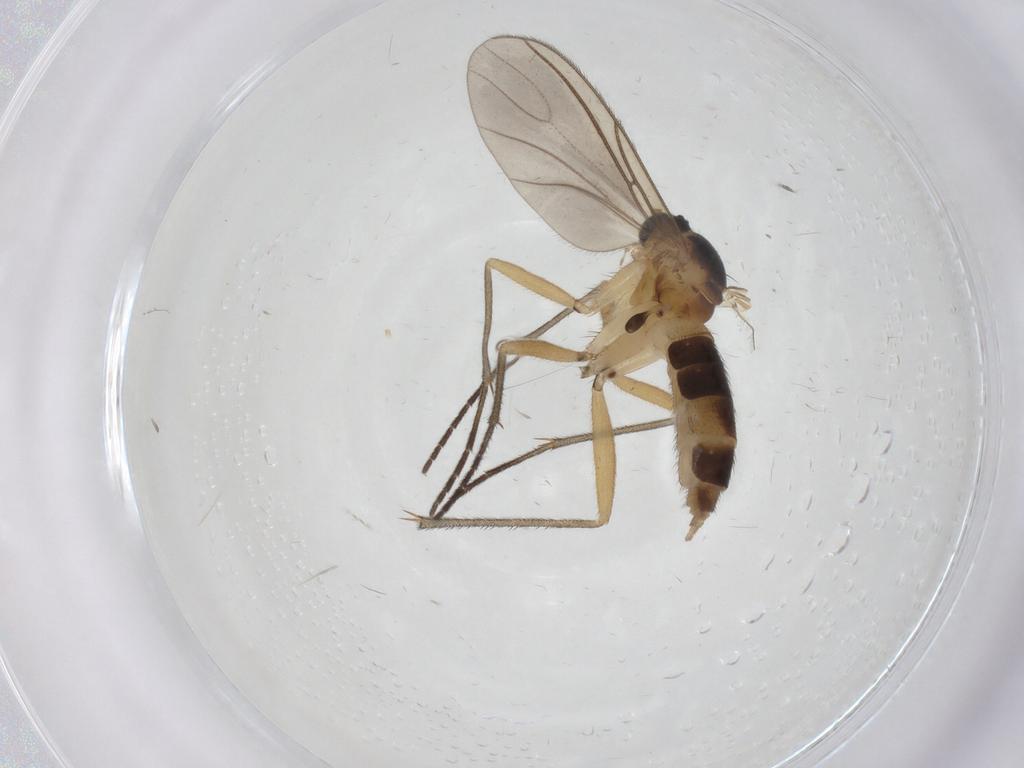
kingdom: Animalia
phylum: Arthropoda
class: Insecta
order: Diptera
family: Sciaridae
